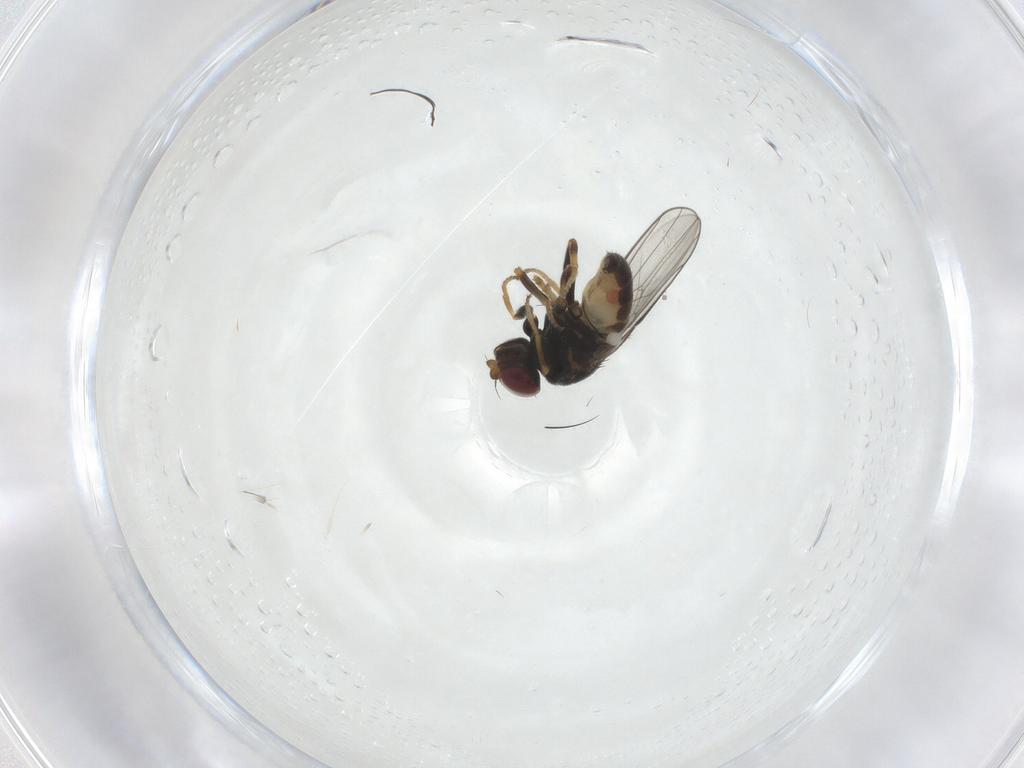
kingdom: Animalia
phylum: Arthropoda
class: Insecta
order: Diptera
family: Chloropidae
